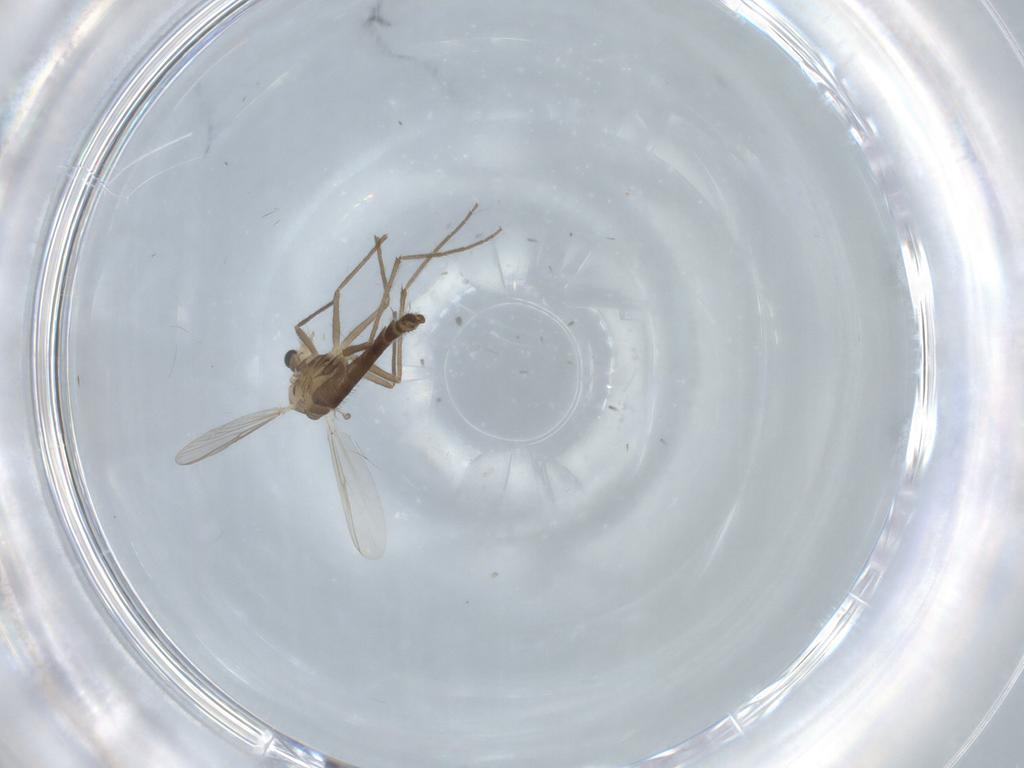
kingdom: Animalia
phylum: Arthropoda
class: Insecta
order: Diptera
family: Chironomidae
